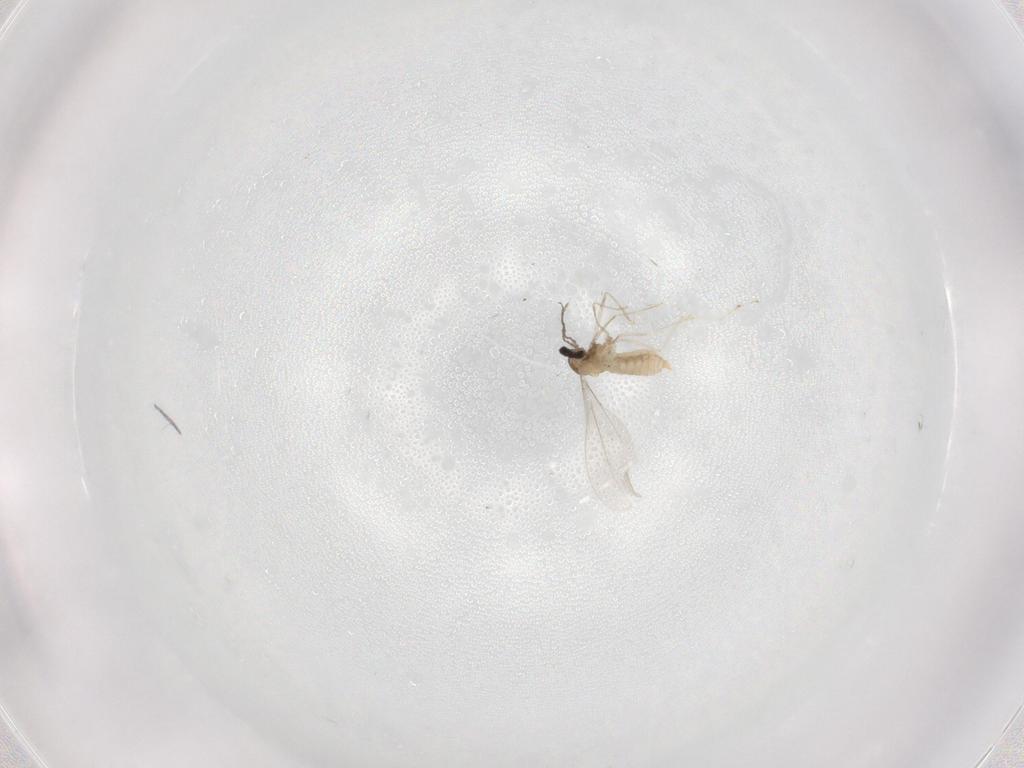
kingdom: Animalia
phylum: Arthropoda
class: Insecta
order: Diptera
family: Cecidomyiidae
